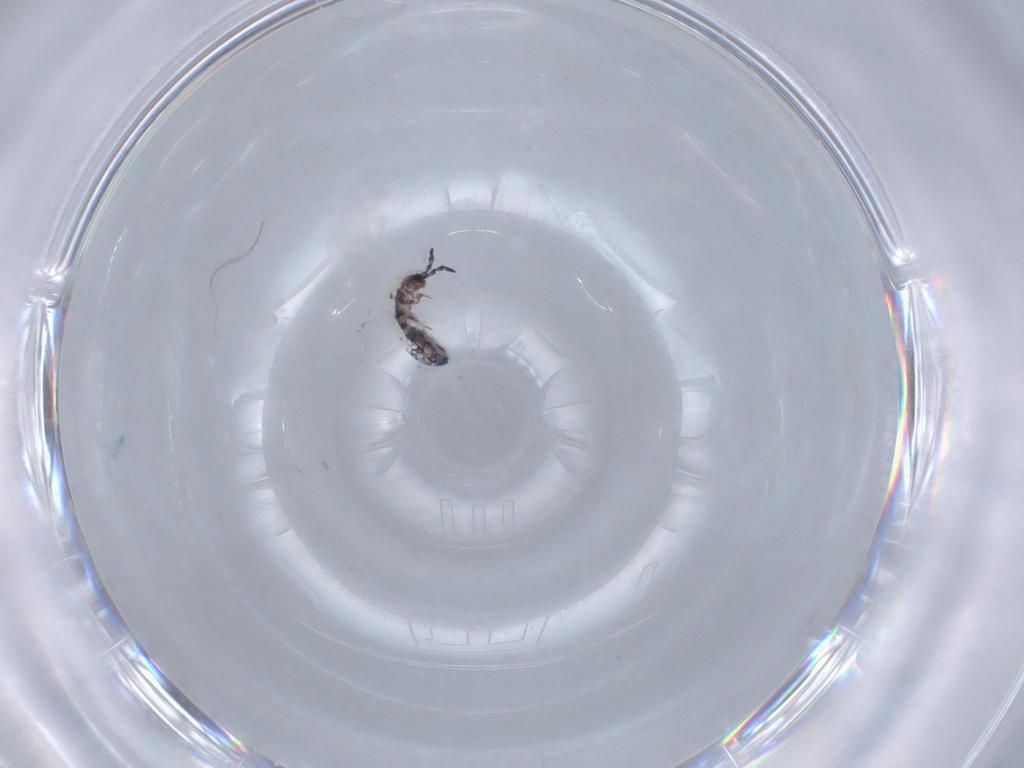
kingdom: Animalia
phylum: Arthropoda
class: Collembola
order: Entomobryomorpha
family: Isotomidae
